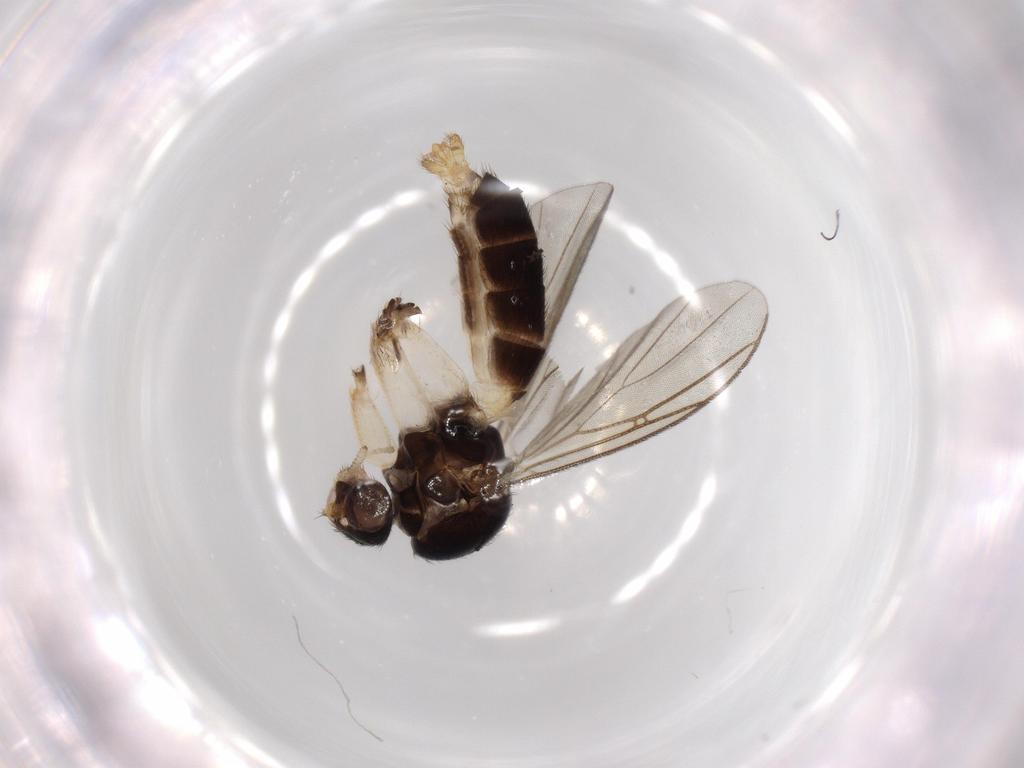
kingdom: Animalia
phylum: Arthropoda
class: Insecta
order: Diptera
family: Mycetophilidae
